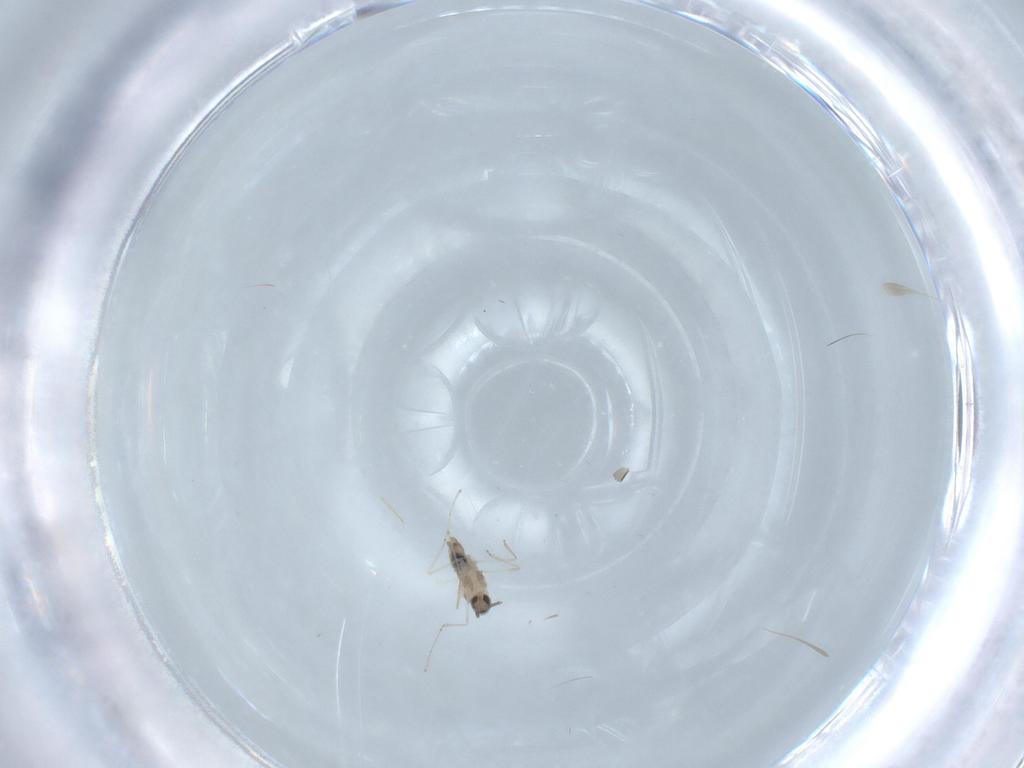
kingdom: Animalia
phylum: Arthropoda
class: Insecta
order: Diptera
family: Cecidomyiidae
